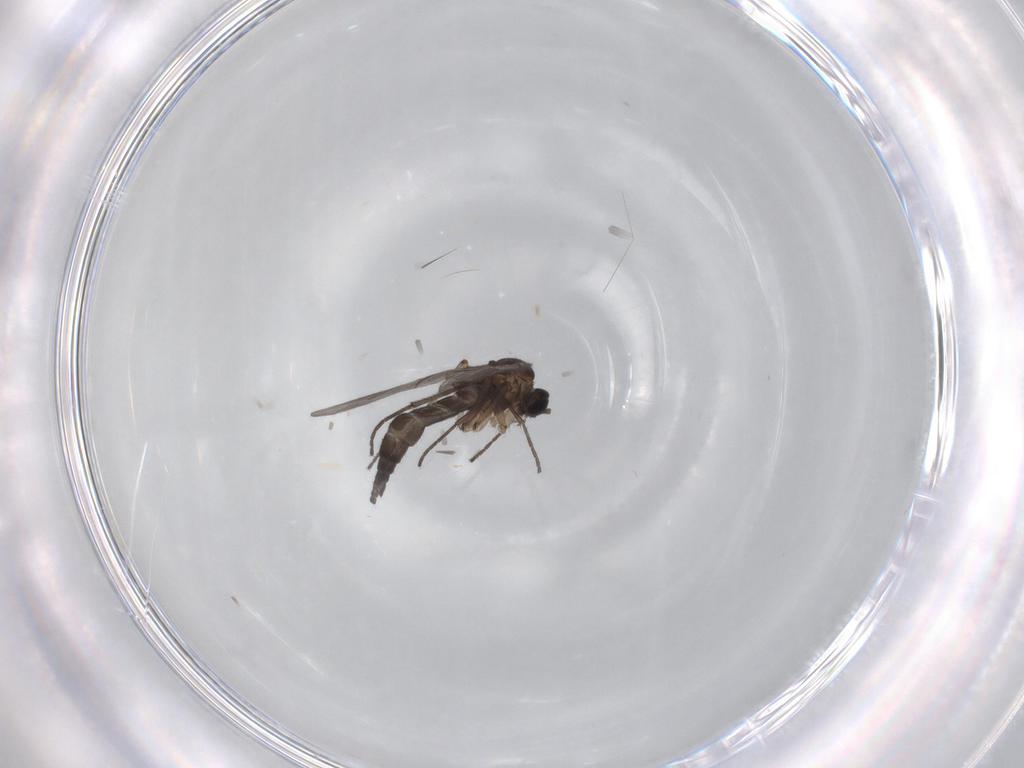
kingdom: Animalia
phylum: Arthropoda
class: Insecta
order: Diptera
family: Sciaridae
